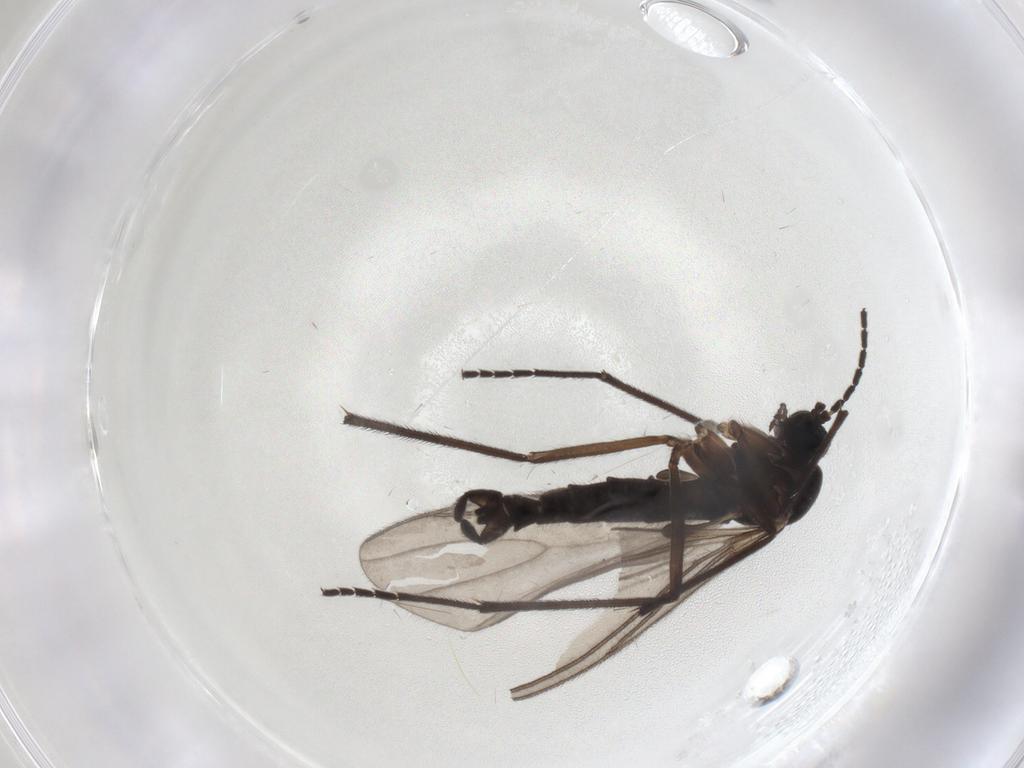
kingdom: Animalia
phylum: Arthropoda
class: Insecta
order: Diptera
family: Sciaridae
